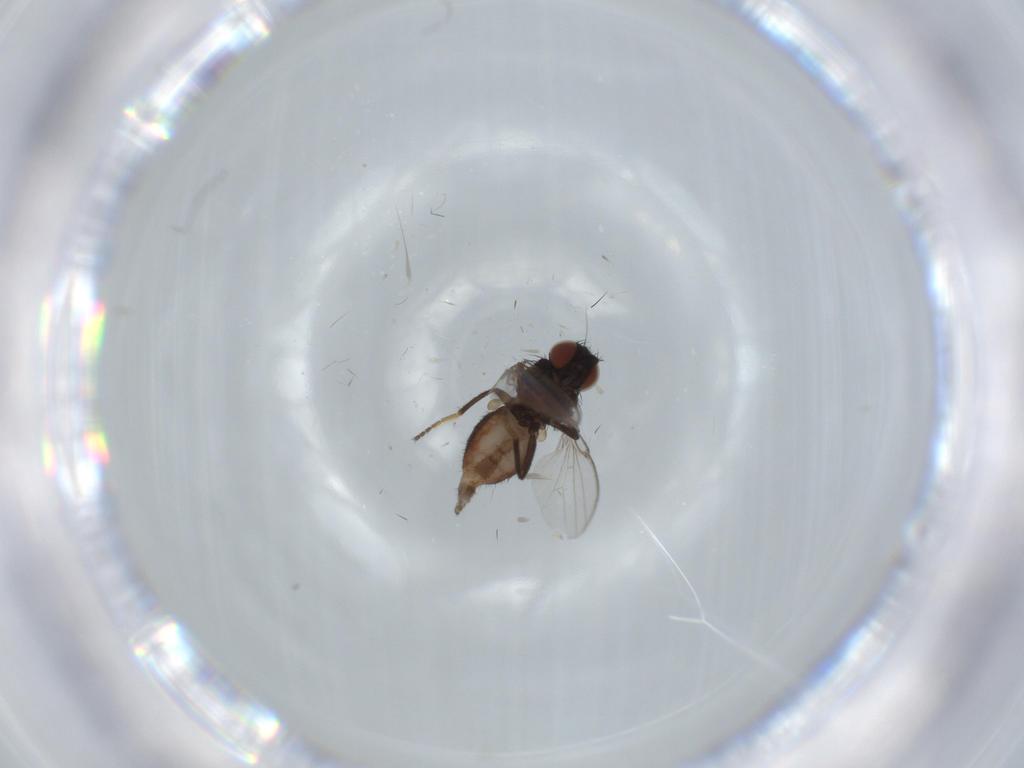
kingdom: Animalia
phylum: Arthropoda
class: Insecta
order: Diptera
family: Milichiidae
